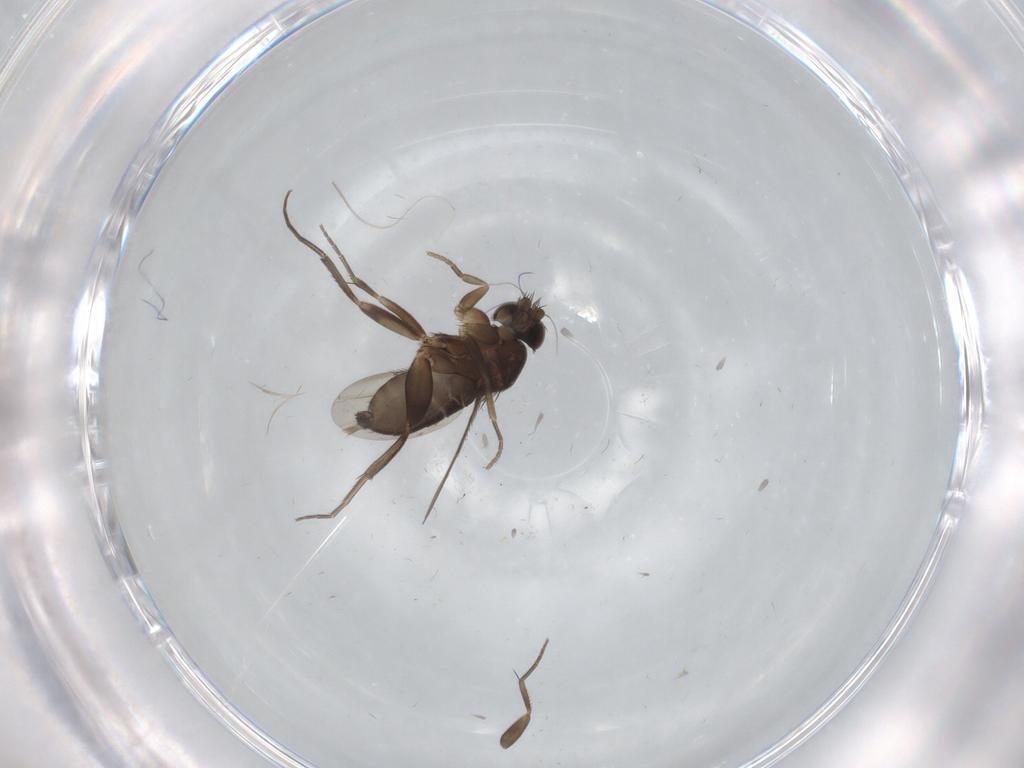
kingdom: Animalia
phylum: Arthropoda
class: Insecta
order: Diptera
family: Phoridae
